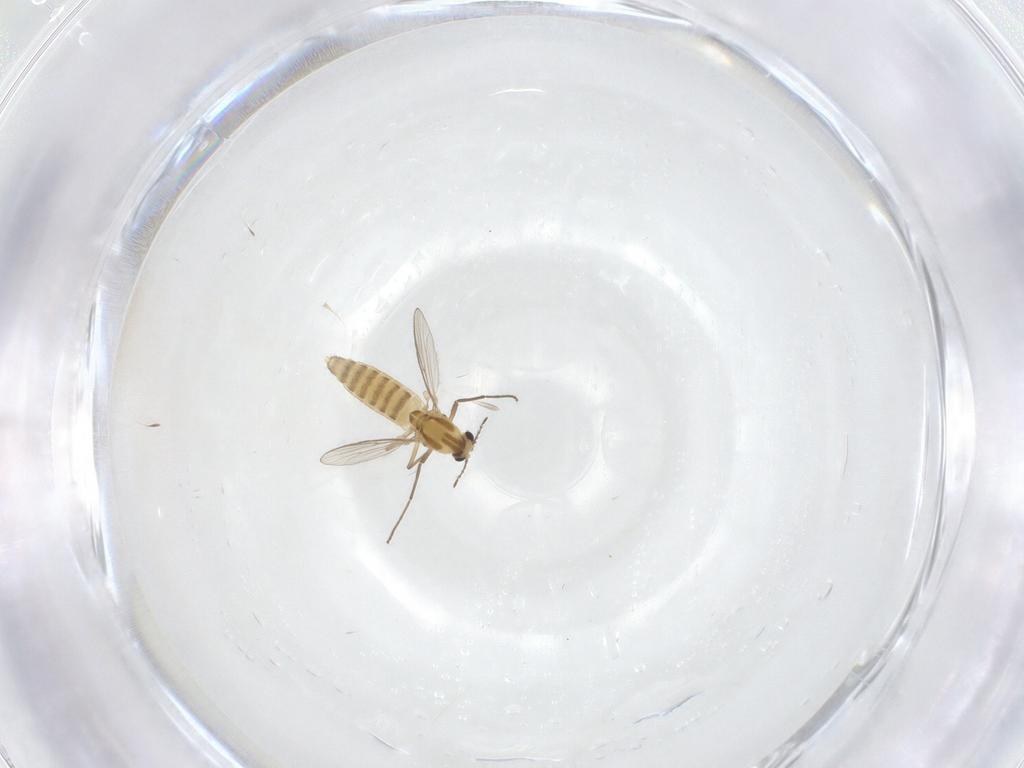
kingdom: Animalia
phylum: Arthropoda
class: Insecta
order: Diptera
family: Chironomidae
